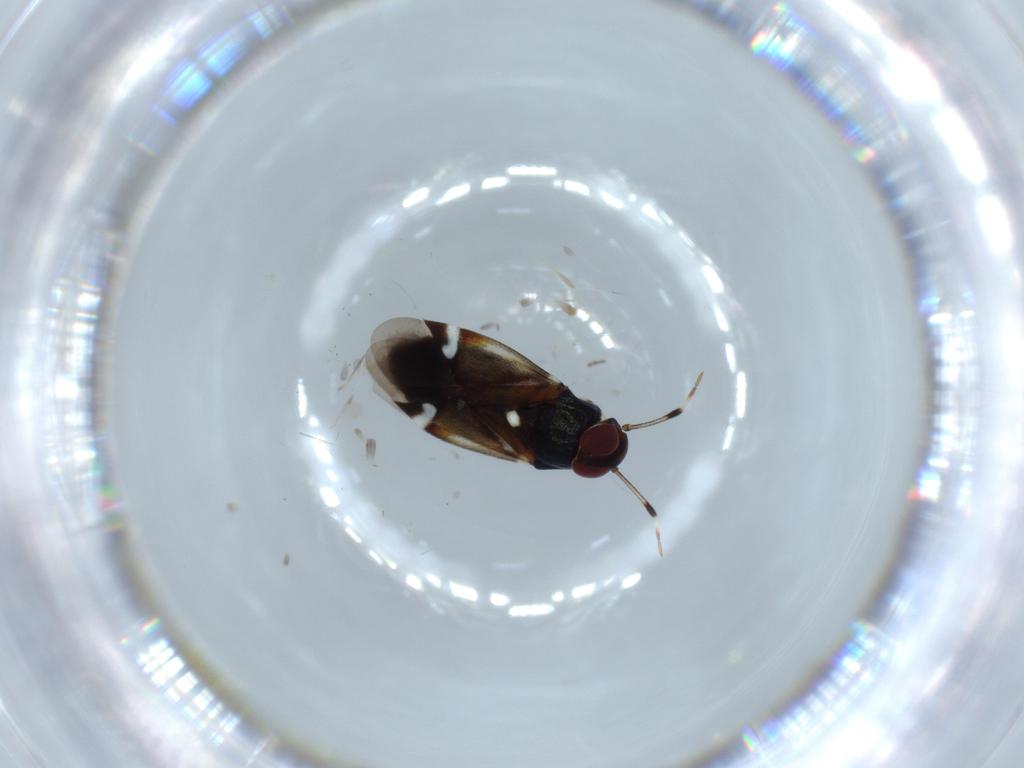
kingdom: Animalia
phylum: Arthropoda
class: Insecta
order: Hemiptera
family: Miridae
